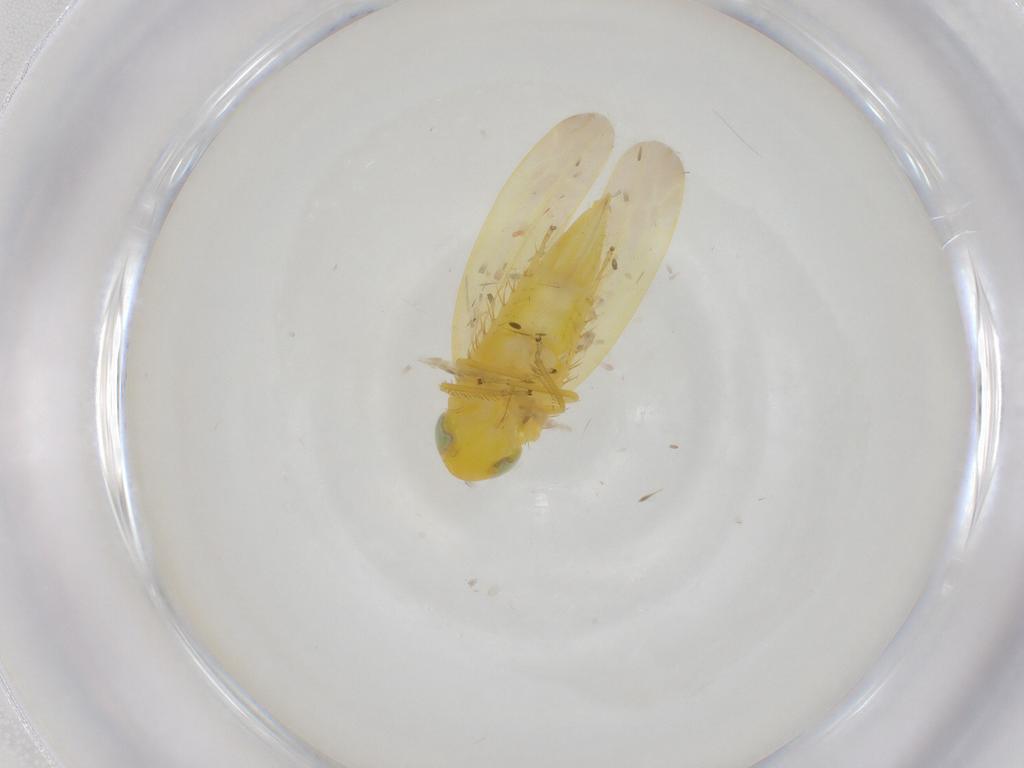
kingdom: Animalia
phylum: Arthropoda
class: Insecta
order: Hemiptera
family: Cicadellidae
